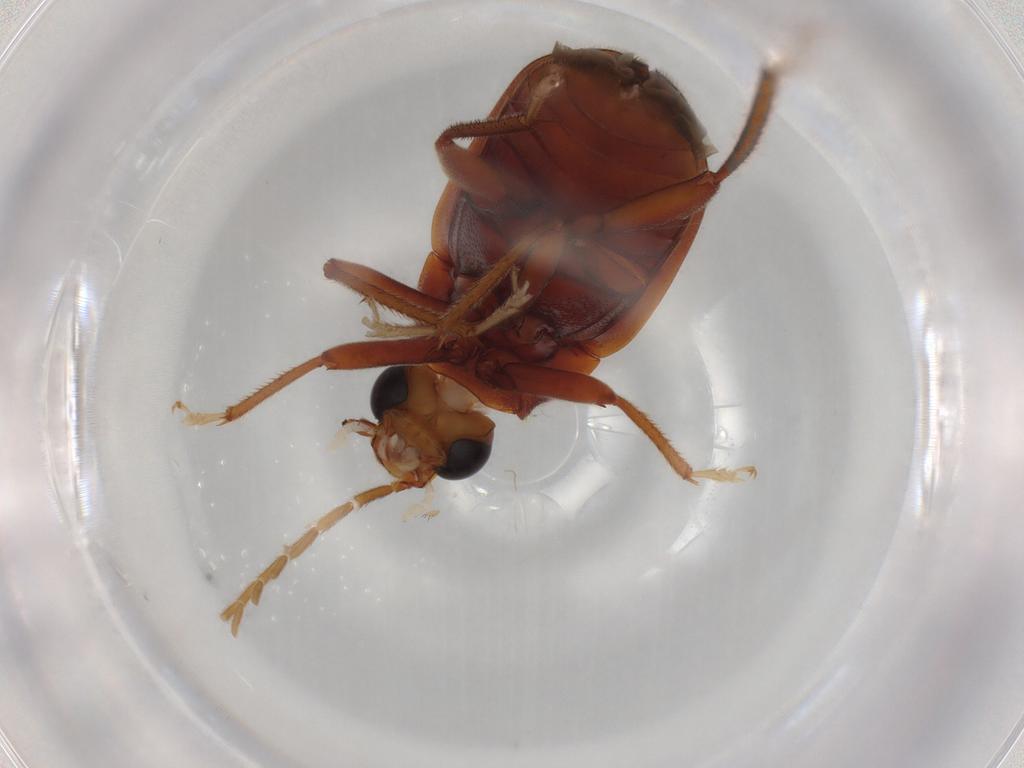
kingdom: Animalia
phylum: Arthropoda
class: Insecta
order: Coleoptera
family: Ptilodactylidae
